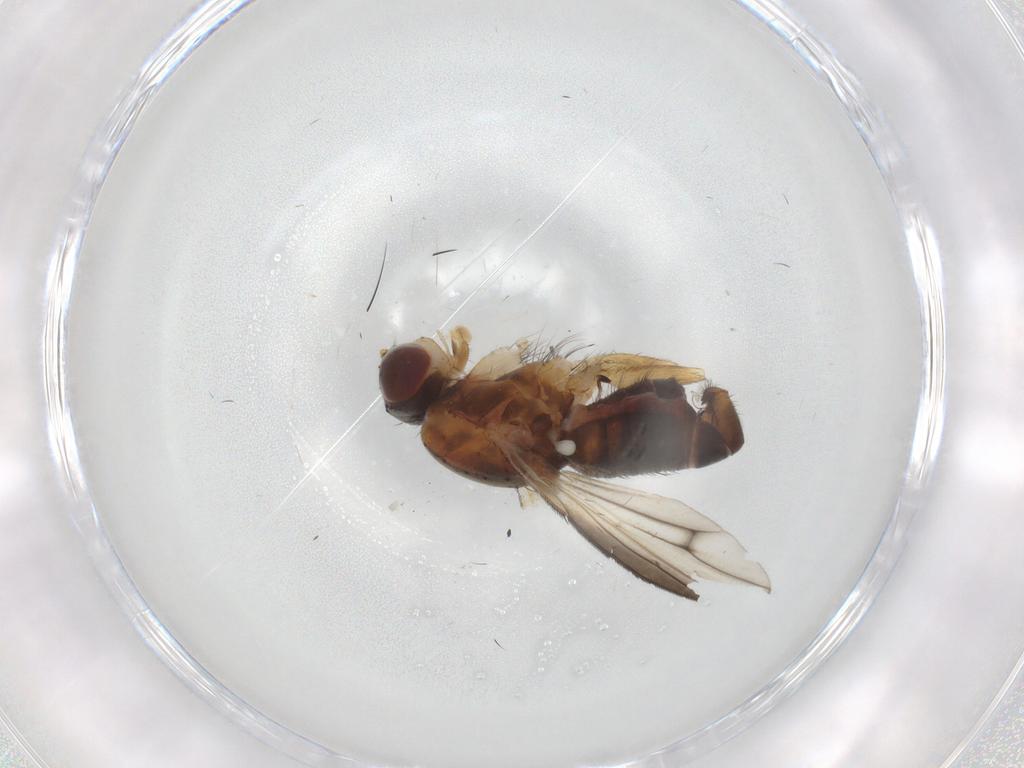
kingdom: Animalia
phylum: Arthropoda
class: Insecta
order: Diptera
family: Heleomyzidae
